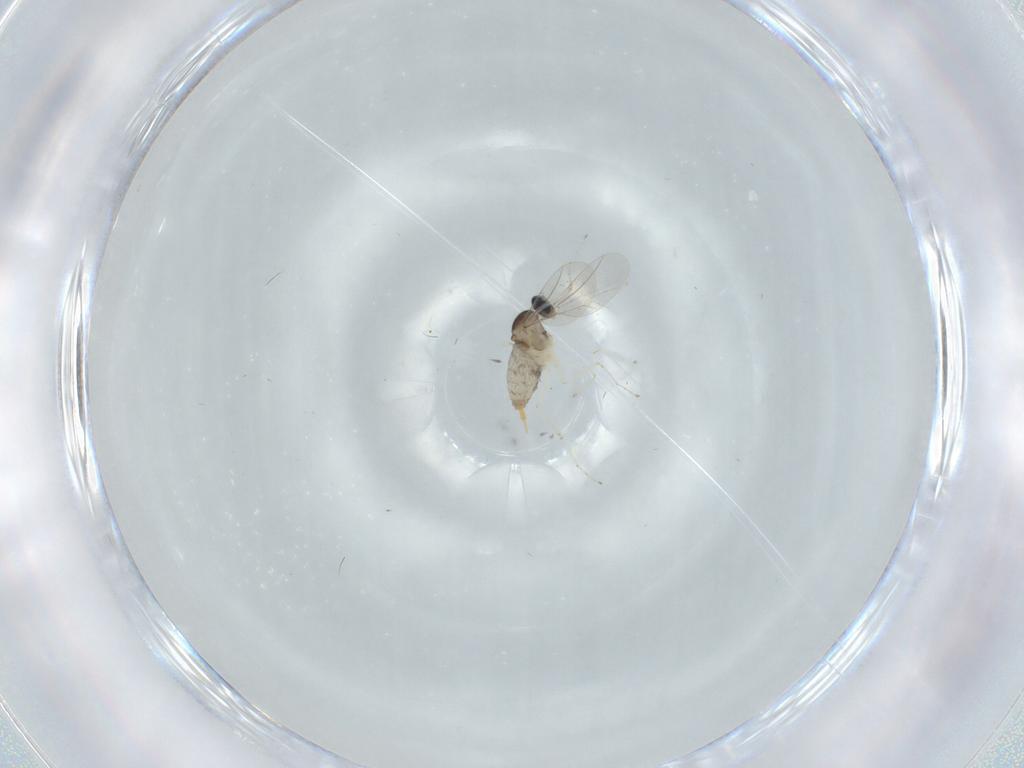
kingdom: Animalia
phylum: Arthropoda
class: Insecta
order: Diptera
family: Cecidomyiidae
